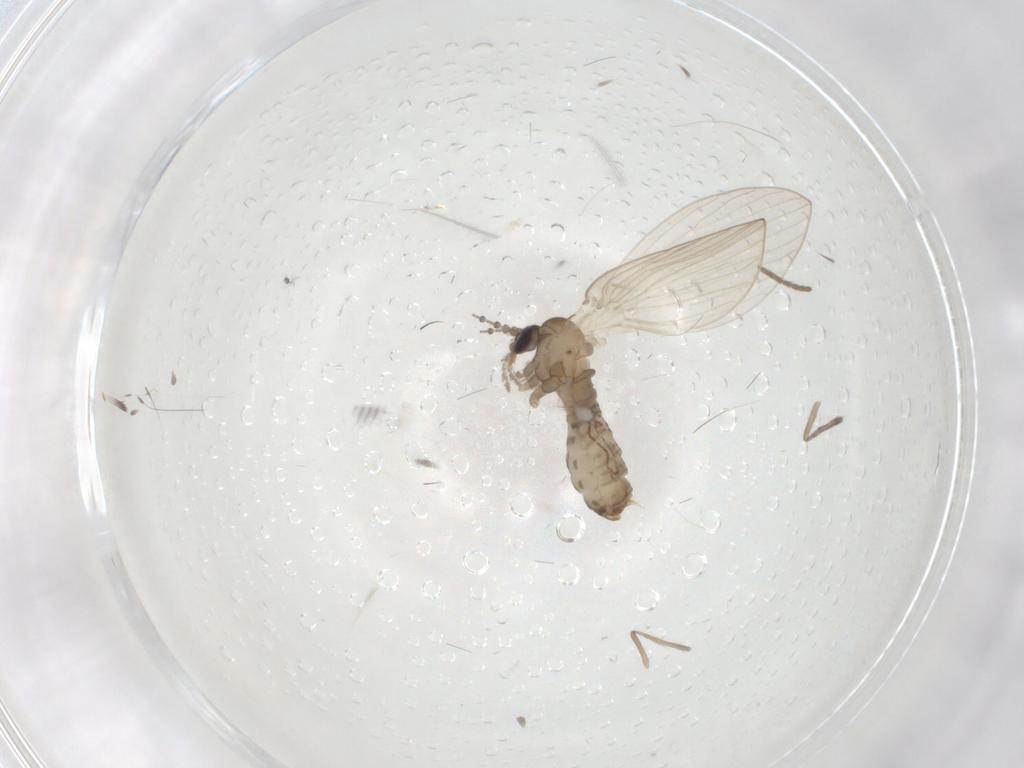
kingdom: Animalia
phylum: Arthropoda
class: Insecta
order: Diptera
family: Psychodidae
